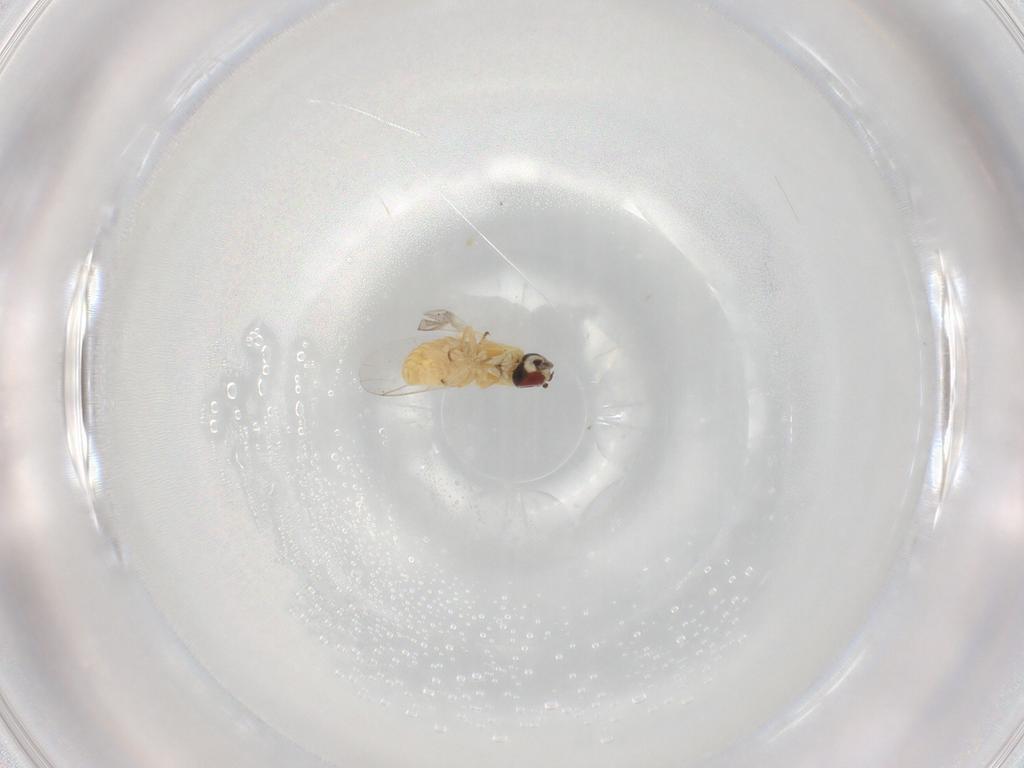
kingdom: Animalia
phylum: Arthropoda
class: Insecta
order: Diptera
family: Bombyliidae
